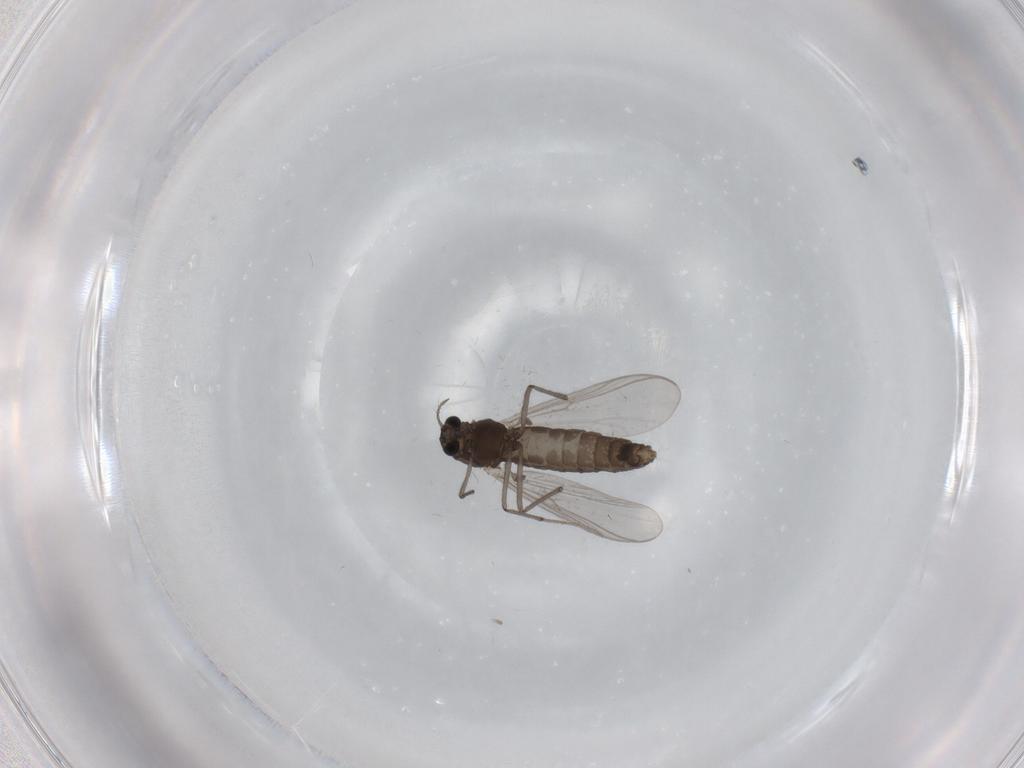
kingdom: Animalia
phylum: Arthropoda
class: Insecta
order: Diptera
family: Chironomidae
